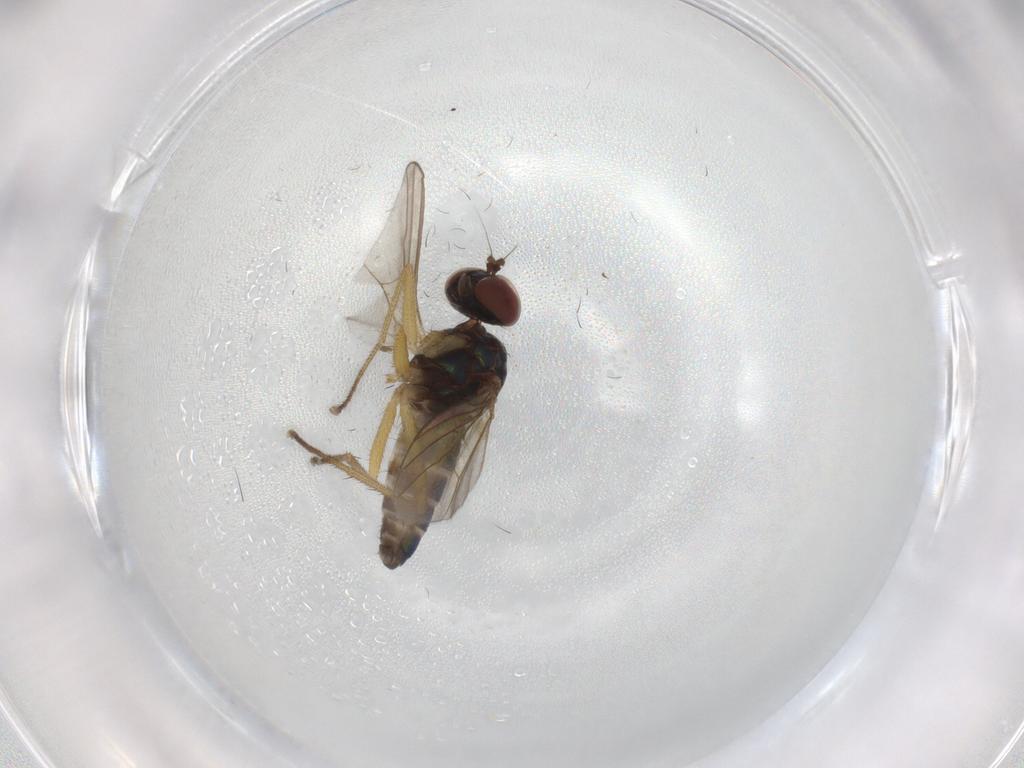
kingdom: Animalia
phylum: Arthropoda
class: Insecta
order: Diptera
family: Dolichopodidae
